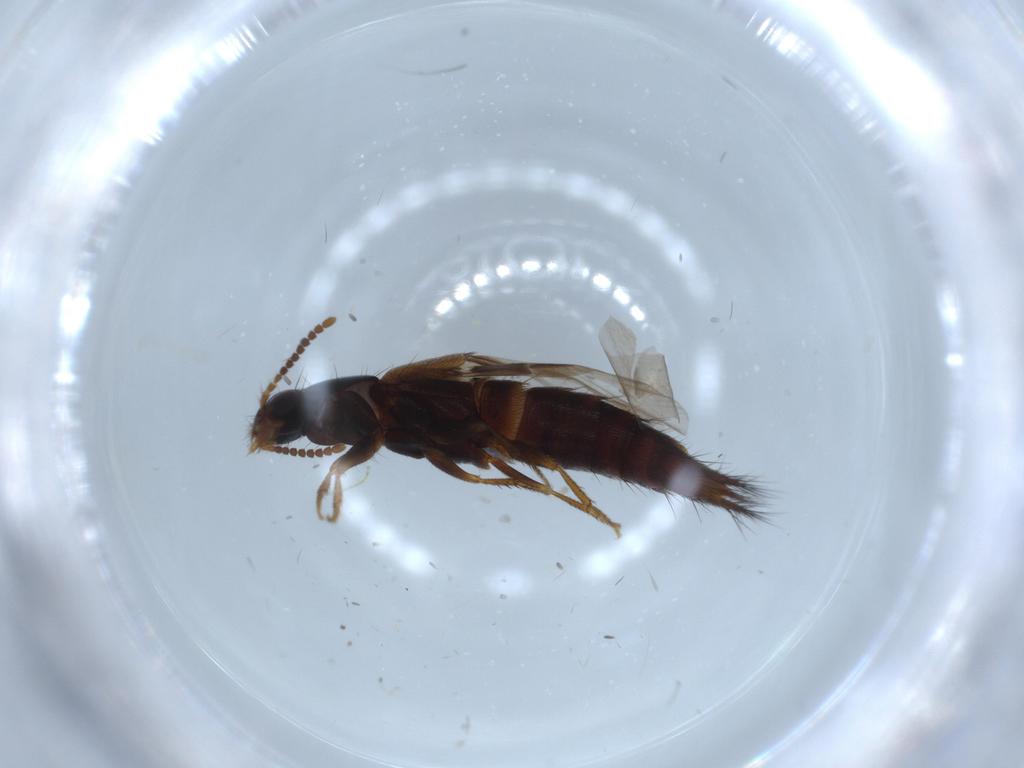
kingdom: Animalia
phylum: Arthropoda
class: Insecta
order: Coleoptera
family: Staphylinidae
